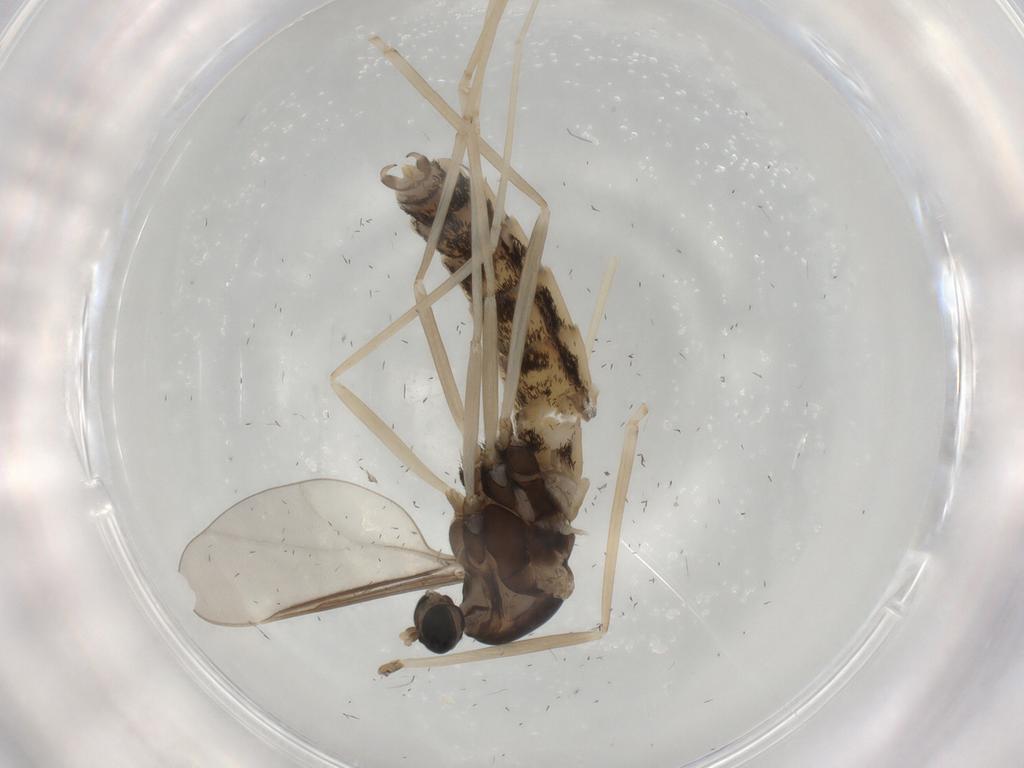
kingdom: Animalia
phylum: Arthropoda
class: Insecta
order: Diptera
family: Cecidomyiidae
